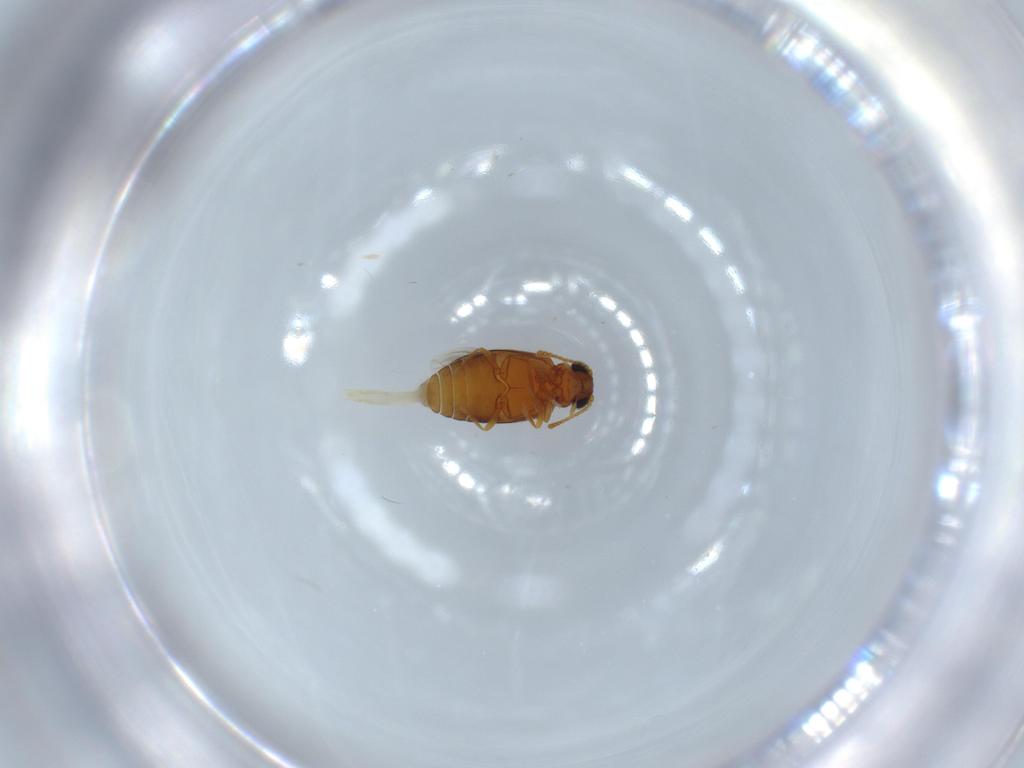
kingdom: Animalia
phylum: Arthropoda
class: Insecta
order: Coleoptera
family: Aderidae
